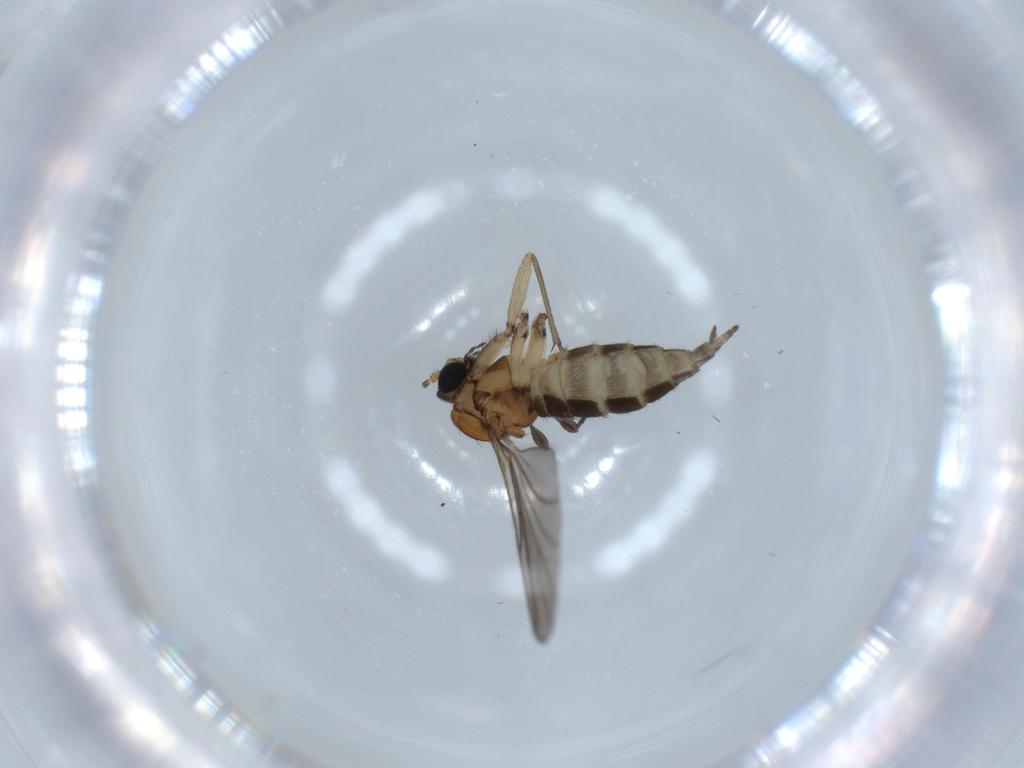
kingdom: Animalia
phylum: Arthropoda
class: Insecta
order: Diptera
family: Sciaridae
